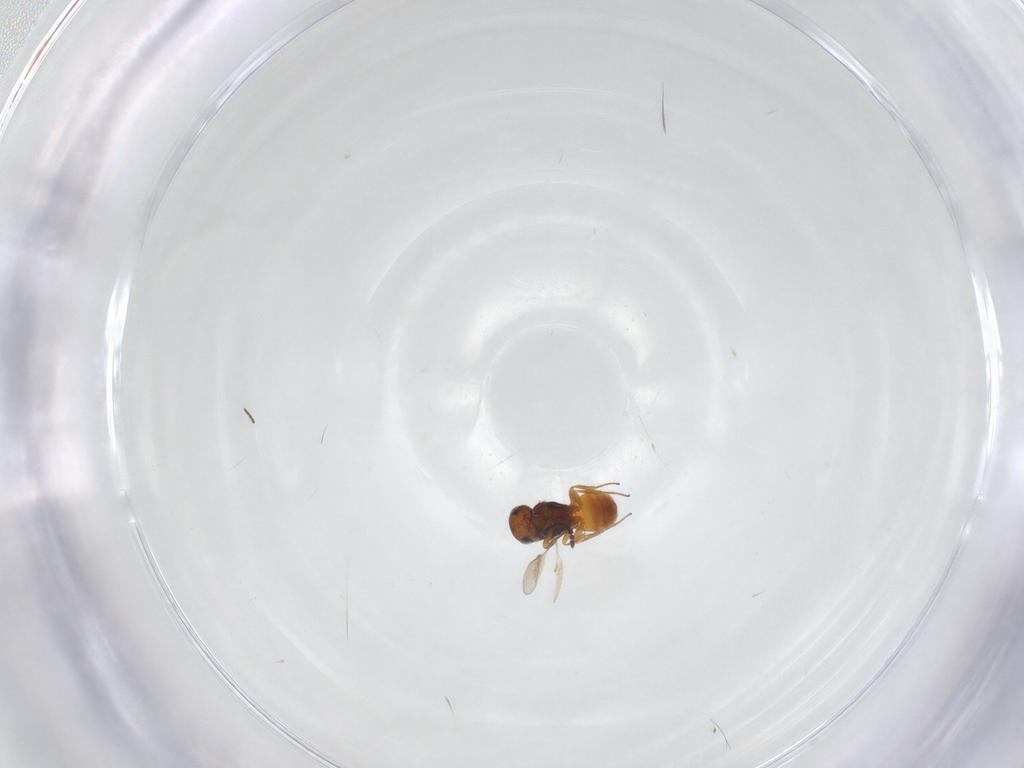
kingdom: Animalia
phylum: Arthropoda
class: Insecta
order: Hymenoptera
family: Scelionidae
